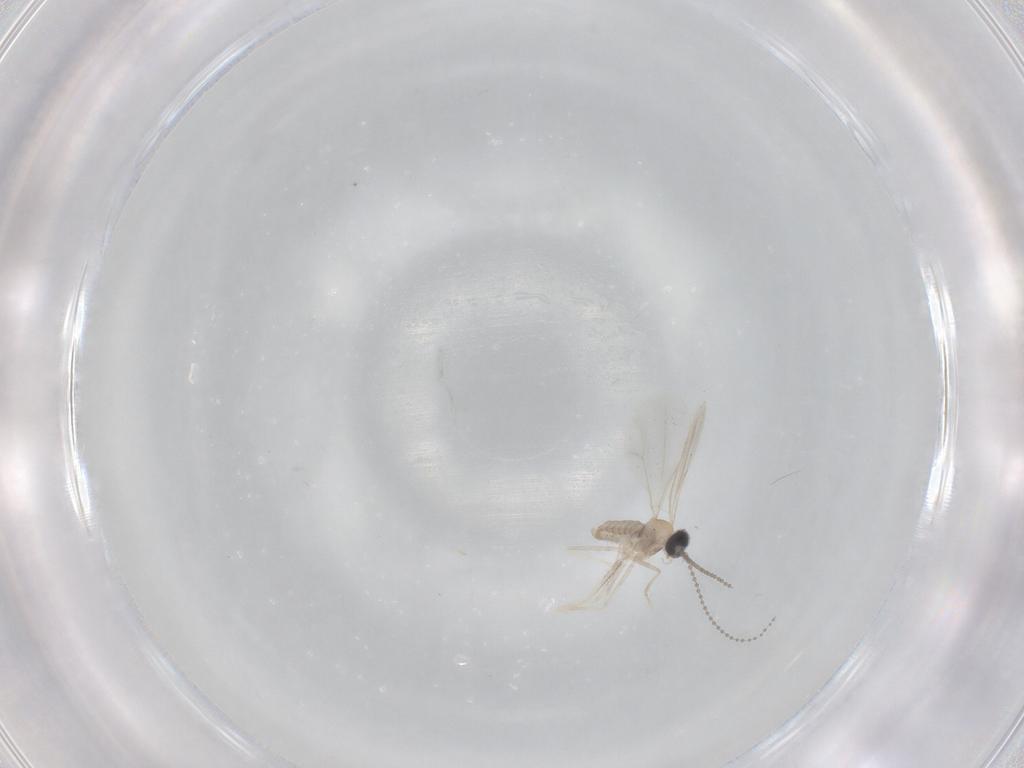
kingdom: Animalia
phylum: Arthropoda
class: Insecta
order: Diptera
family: Cecidomyiidae
